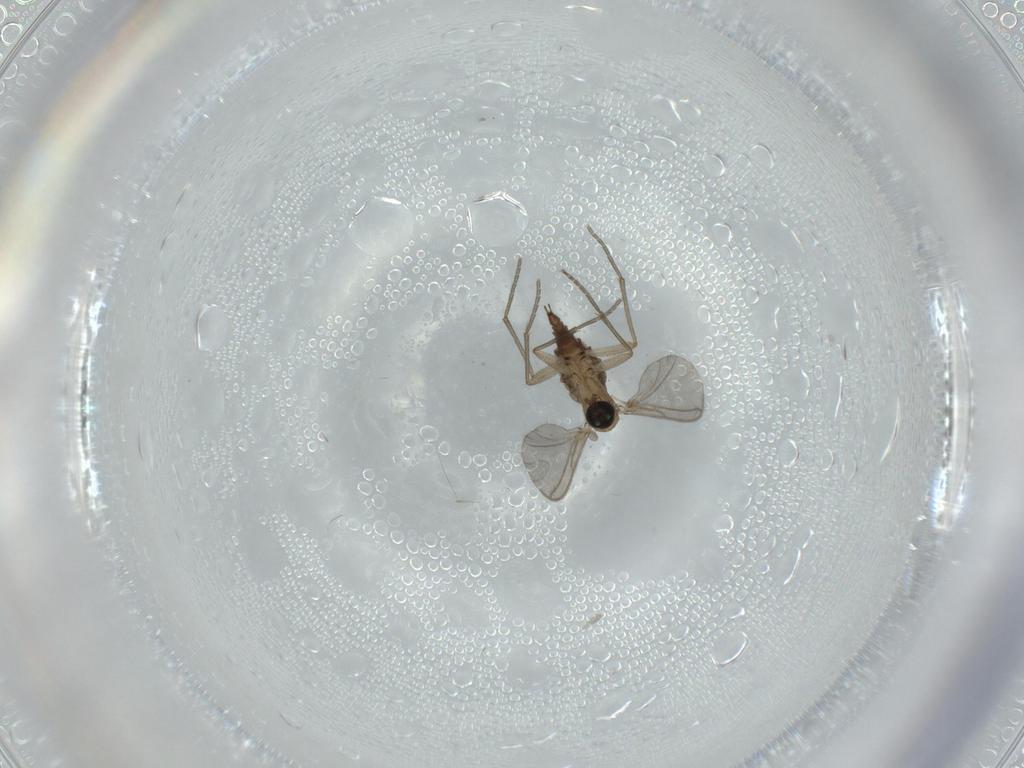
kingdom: Animalia
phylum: Arthropoda
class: Insecta
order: Diptera
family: Sciaridae
